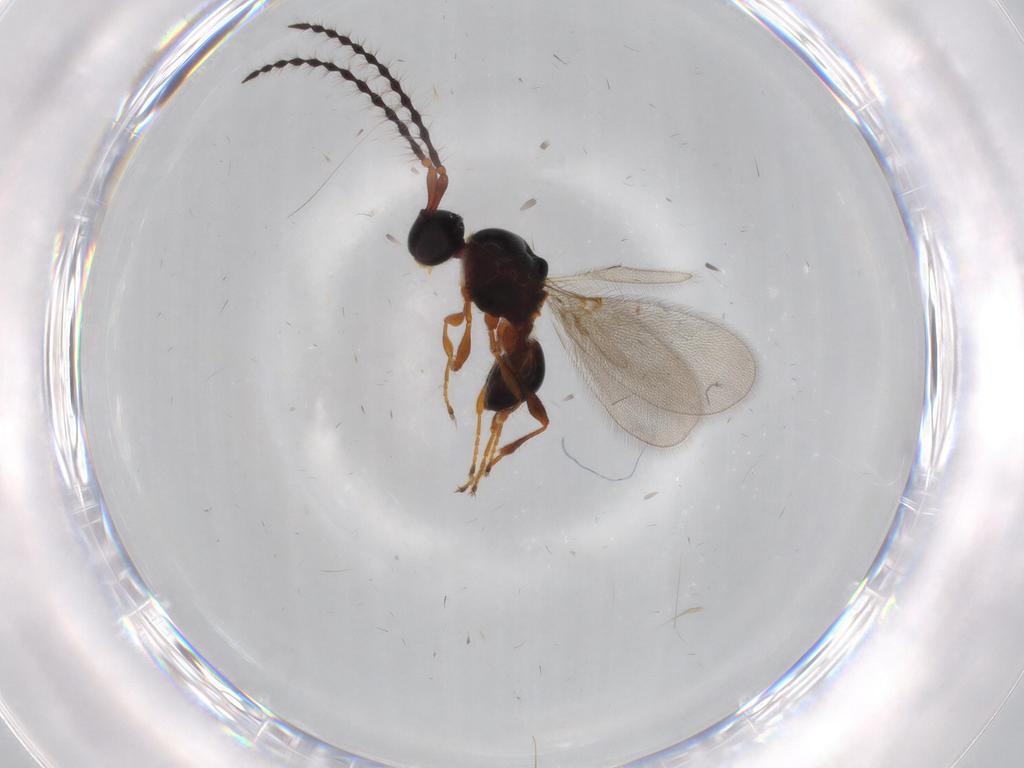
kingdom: Animalia
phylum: Arthropoda
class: Insecta
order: Hymenoptera
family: Diapriidae
